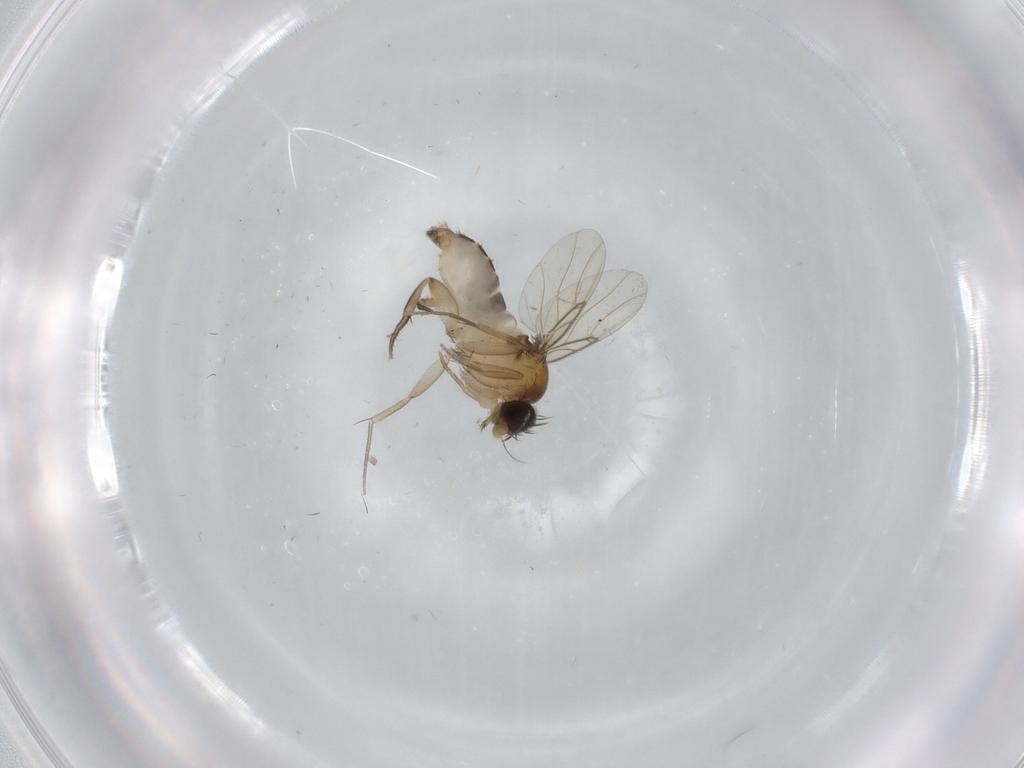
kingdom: Animalia
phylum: Arthropoda
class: Insecta
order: Diptera
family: Phoridae
